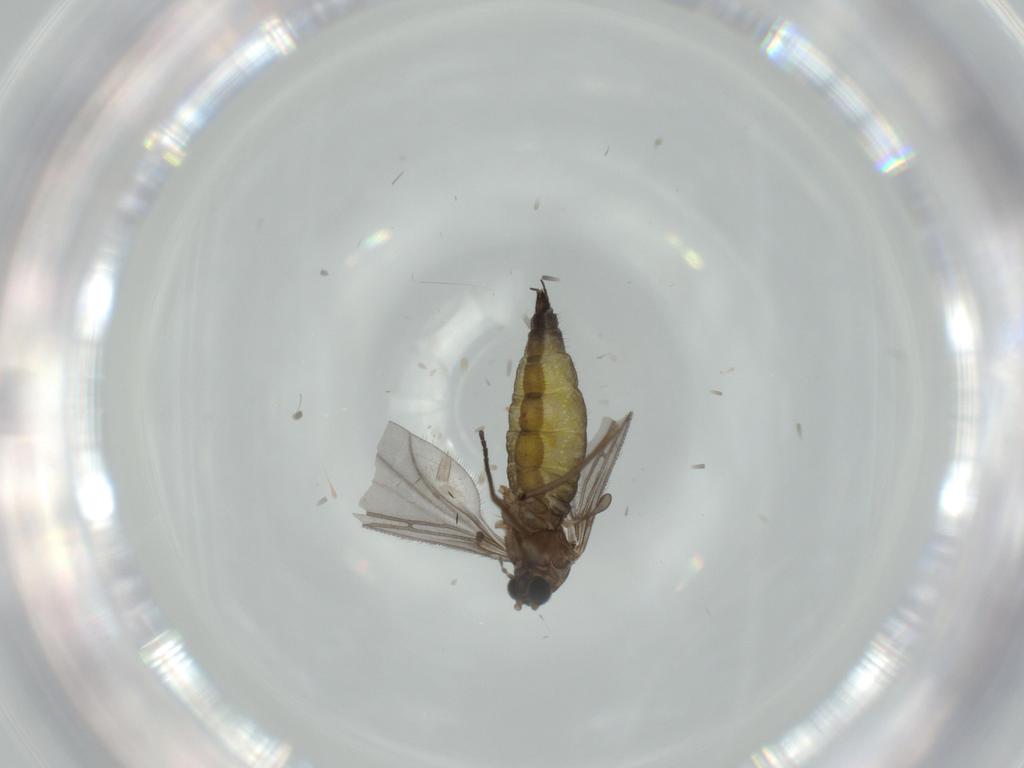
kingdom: Animalia
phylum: Arthropoda
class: Insecta
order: Diptera
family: Sciaridae
